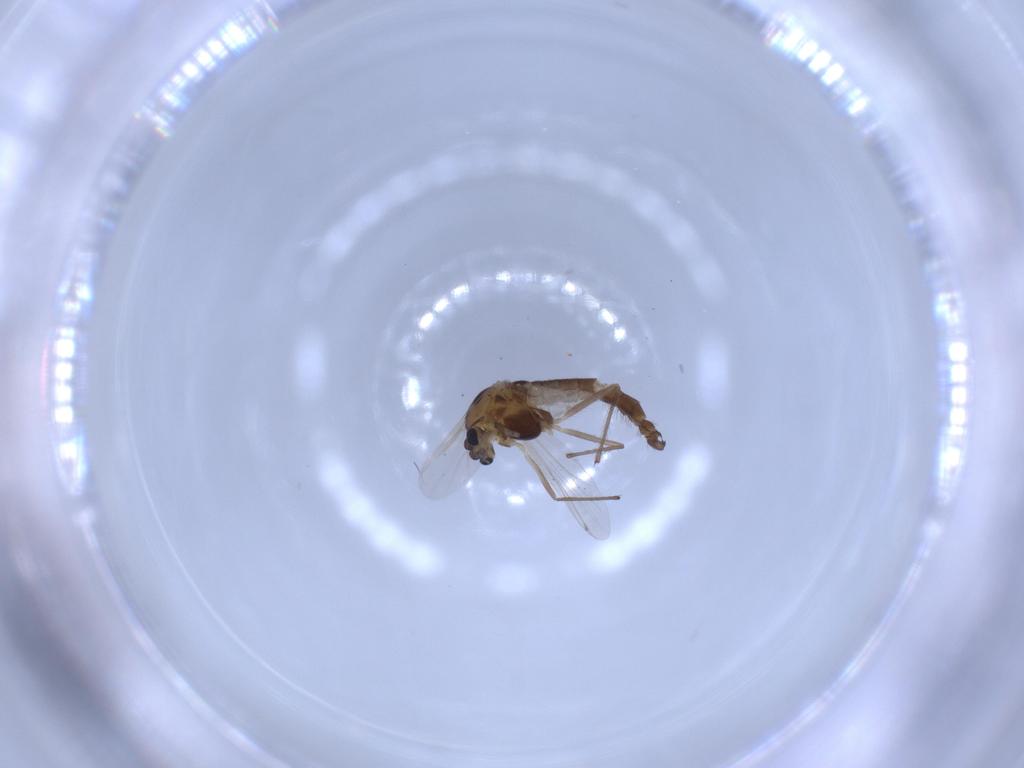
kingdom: Animalia
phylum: Arthropoda
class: Insecta
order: Diptera
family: Chironomidae
